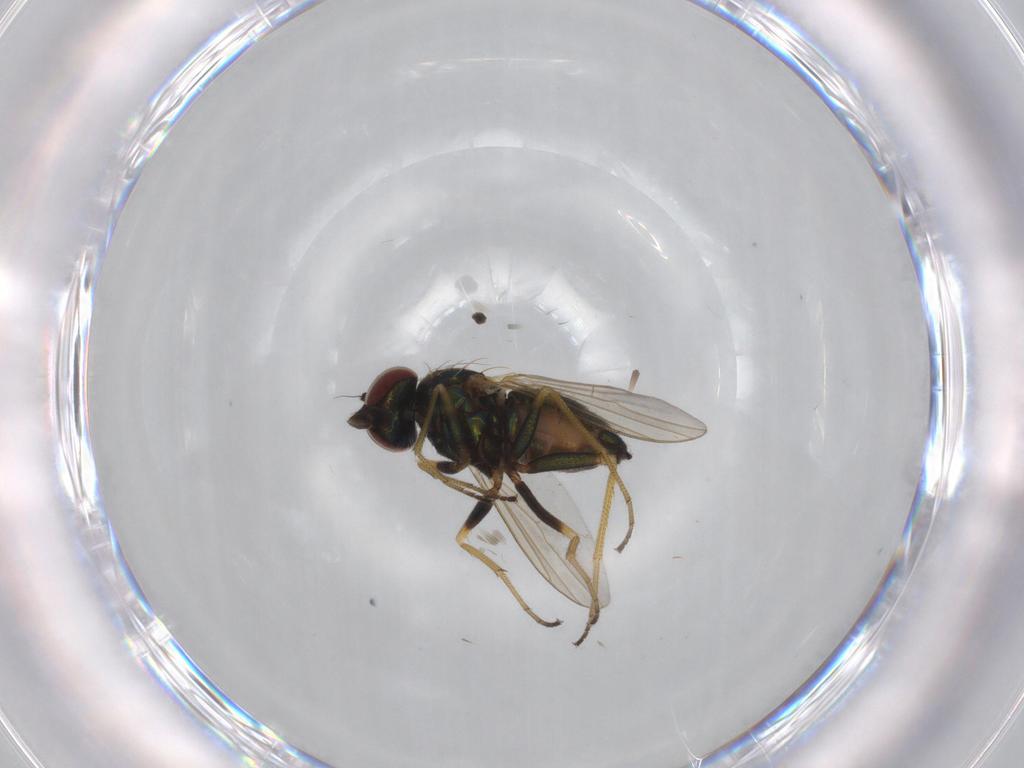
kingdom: Animalia
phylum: Arthropoda
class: Insecta
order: Diptera
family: Dolichopodidae
